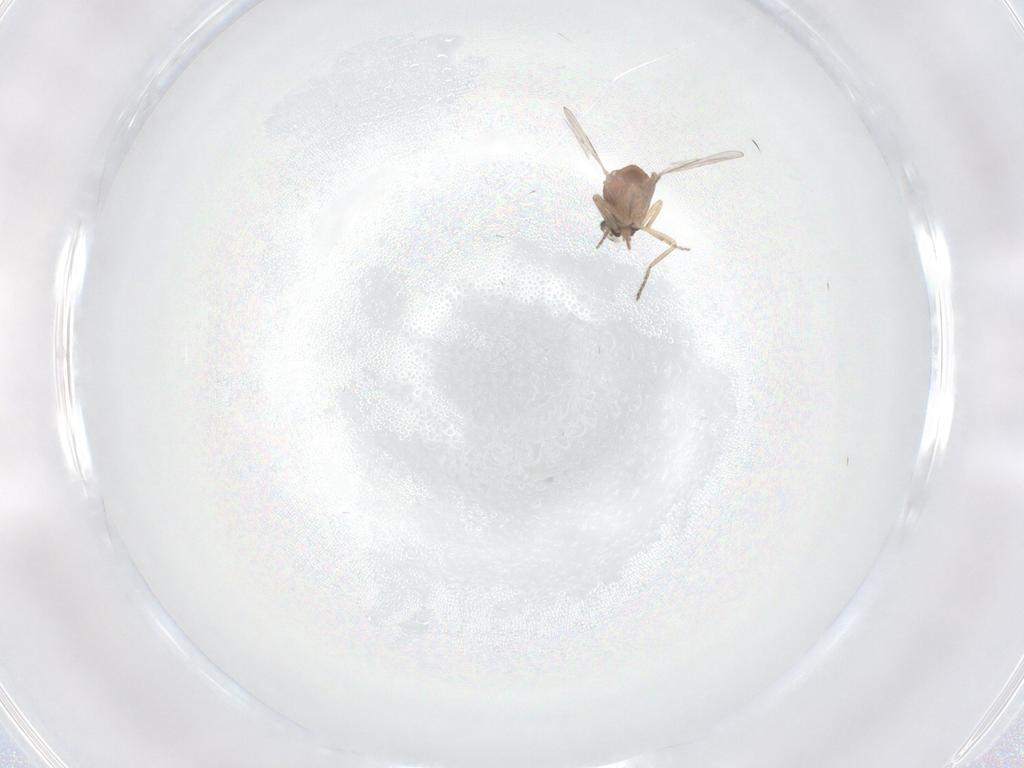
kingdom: Animalia
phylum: Arthropoda
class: Insecta
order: Diptera
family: Ceratopogonidae
